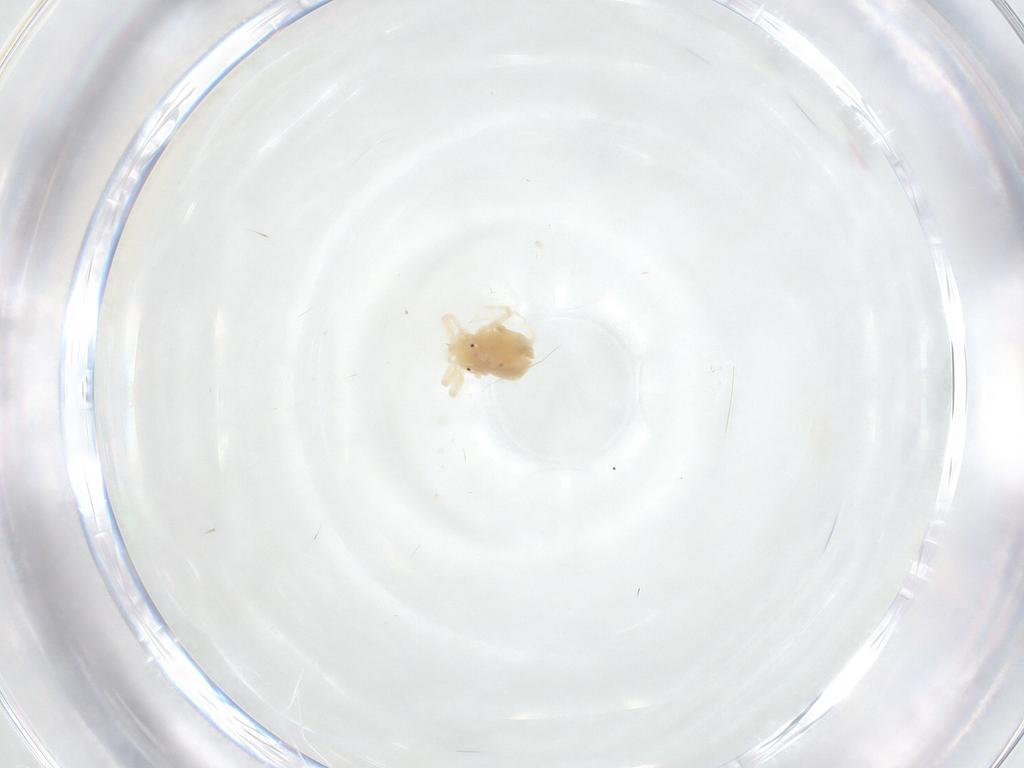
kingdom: Animalia
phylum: Arthropoda
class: Arachnida
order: Trombidiformes
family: Anystidae
